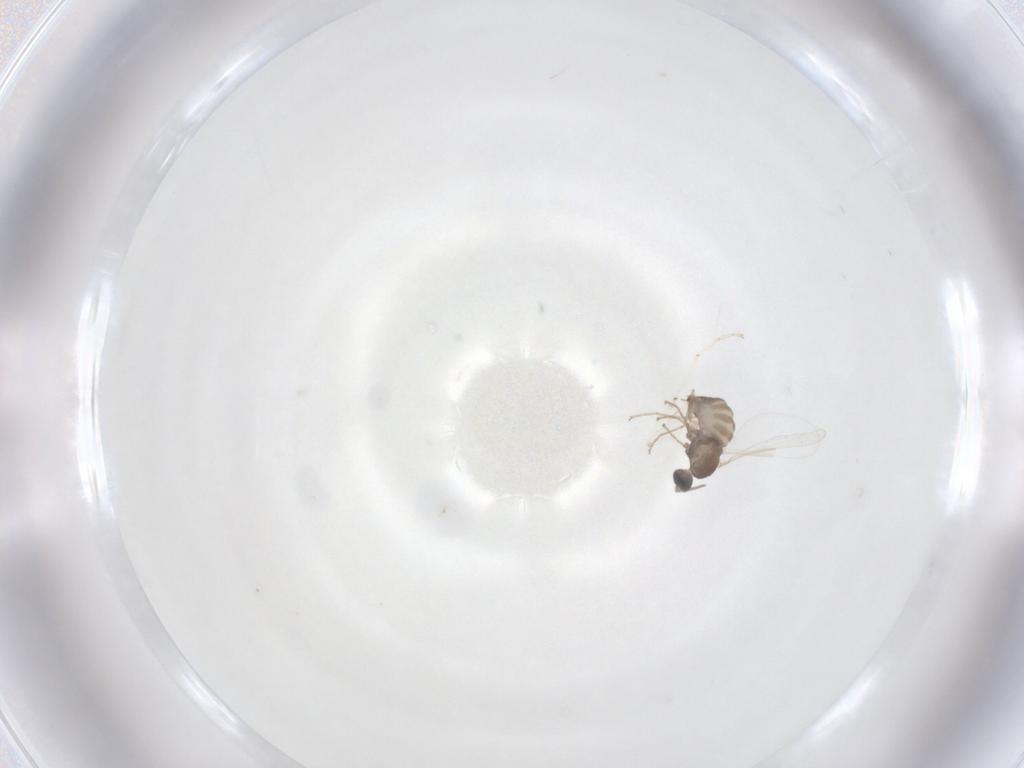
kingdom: Animalia
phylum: Arthropoda
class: Insecta
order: Diptera
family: Cecidomyiidae
